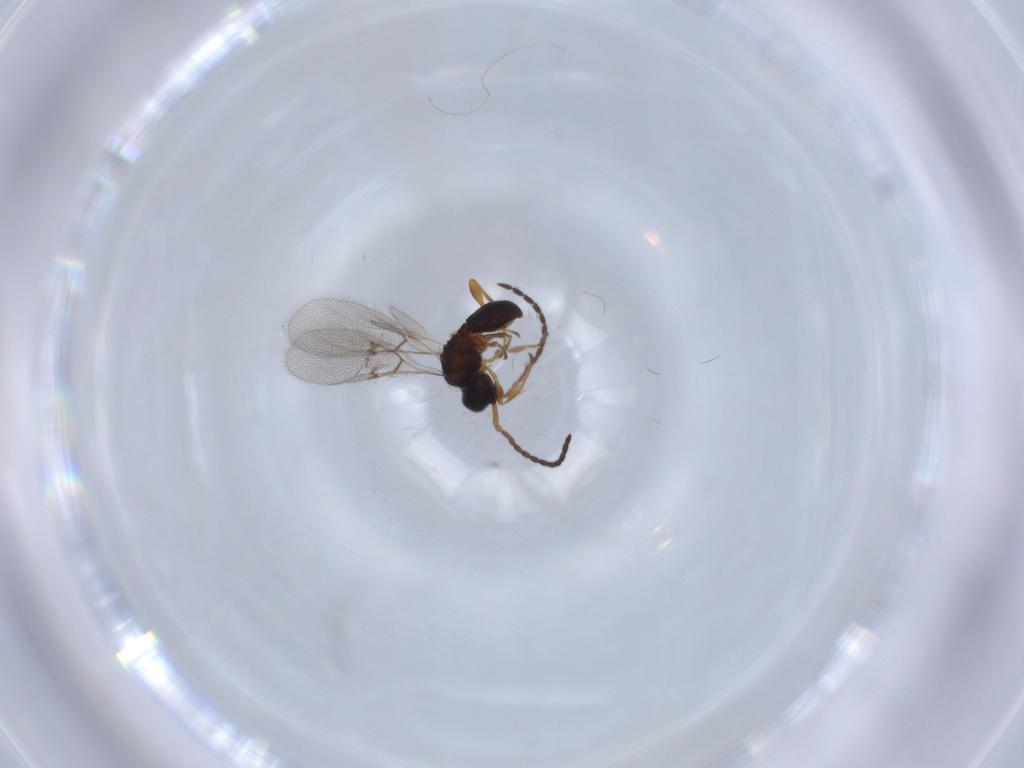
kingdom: Animalia
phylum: Arthropoda
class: Insecta
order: Hymenoptera
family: Diapriidae
